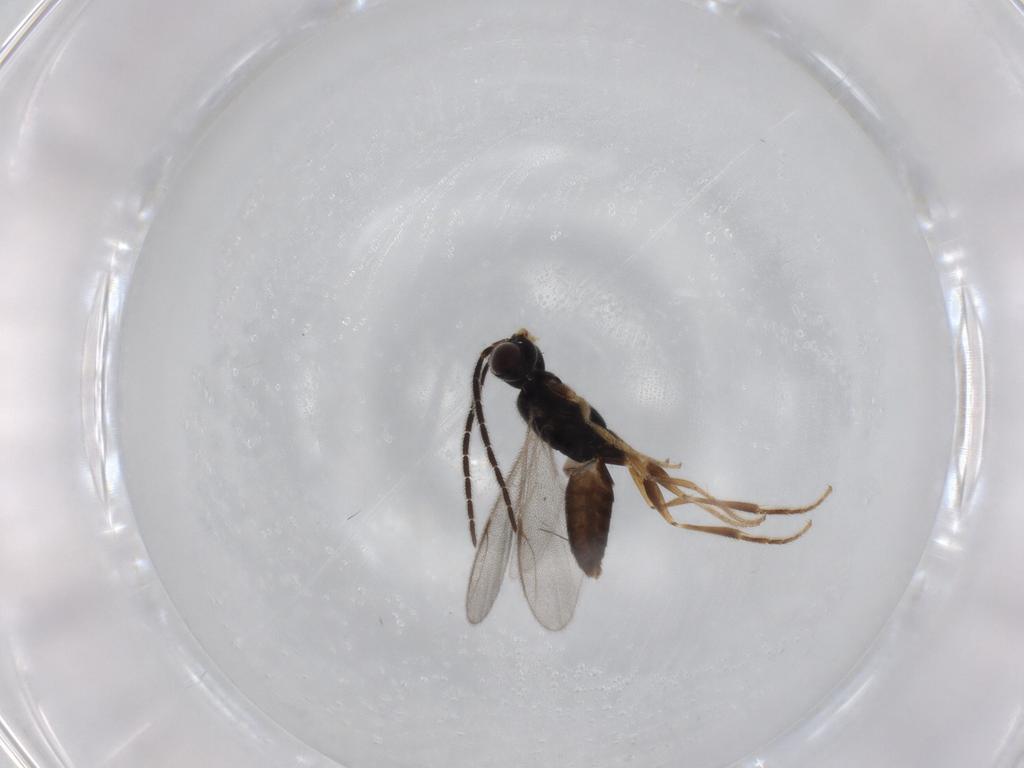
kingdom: Animalia
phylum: Arthropoda
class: Insecta
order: Hymenoptera
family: Dryinidae
